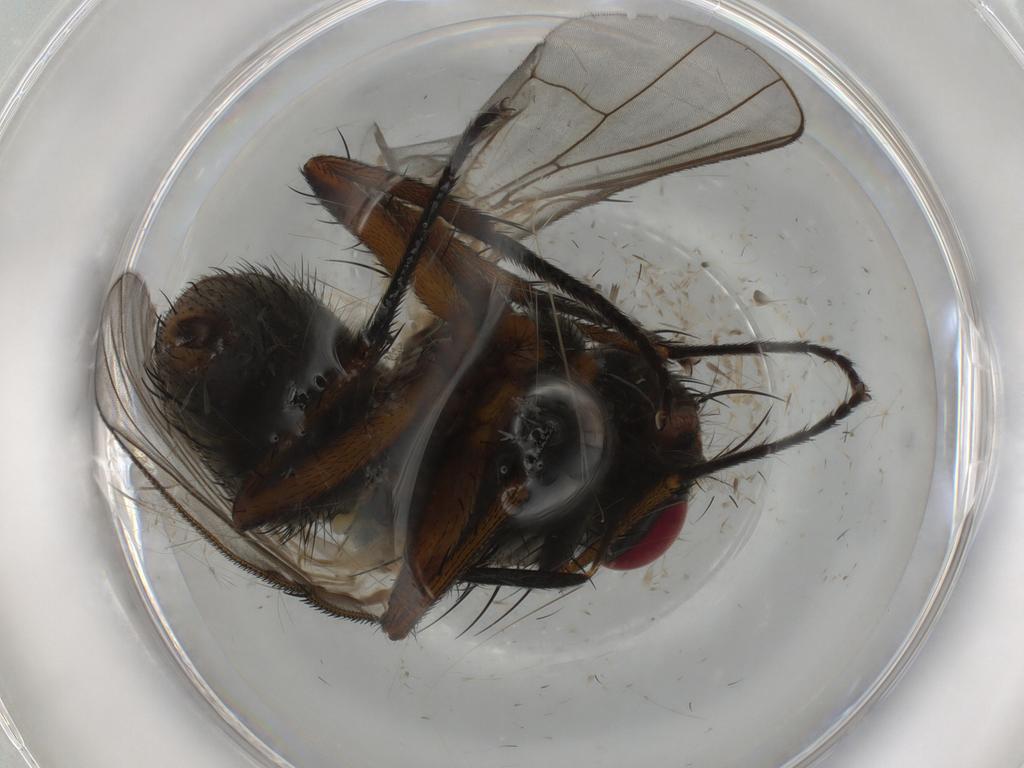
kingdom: Animalia
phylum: Arthropoda
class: Insecta
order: Diptera
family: Muscidae
